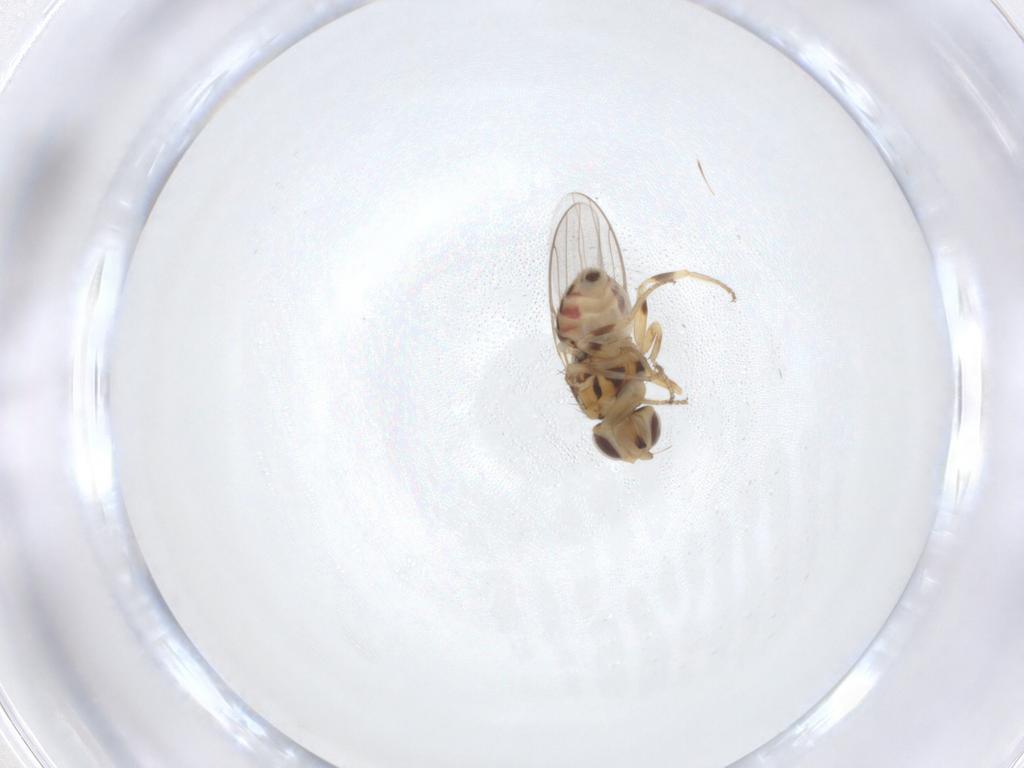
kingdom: Animalia
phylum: Arthropoda
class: Insecta
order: Diptera
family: Chloropidae
